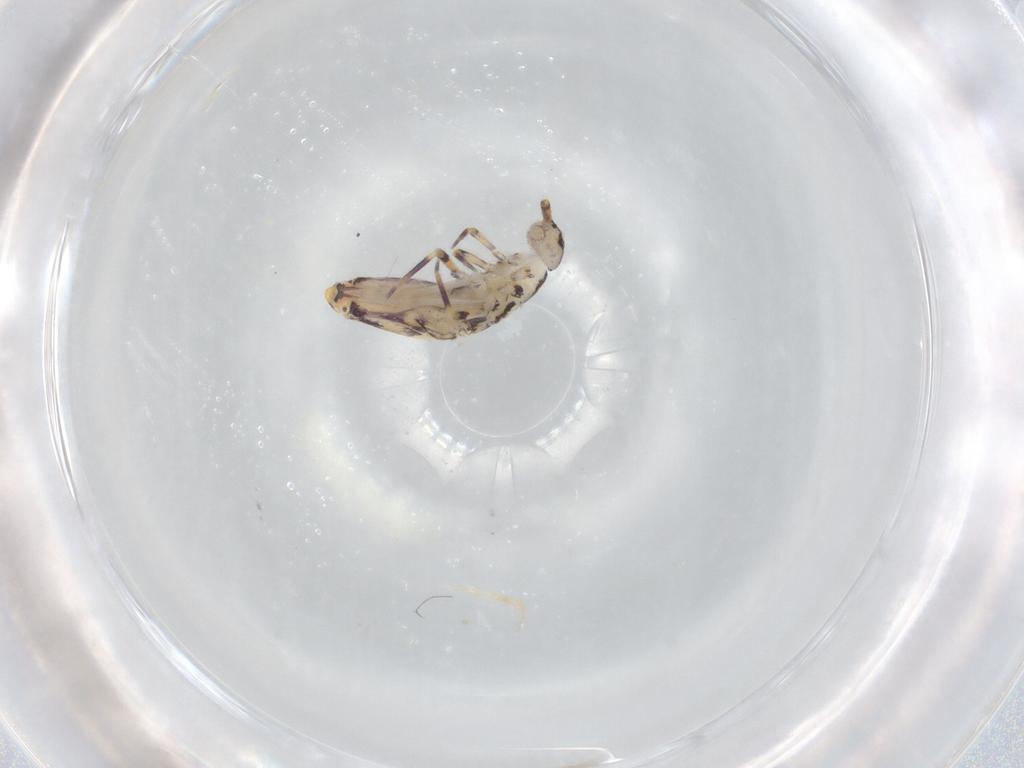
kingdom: Animalia
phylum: Arthropoda
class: Collembola
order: Entomobryomorpha
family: Entomobryidae
